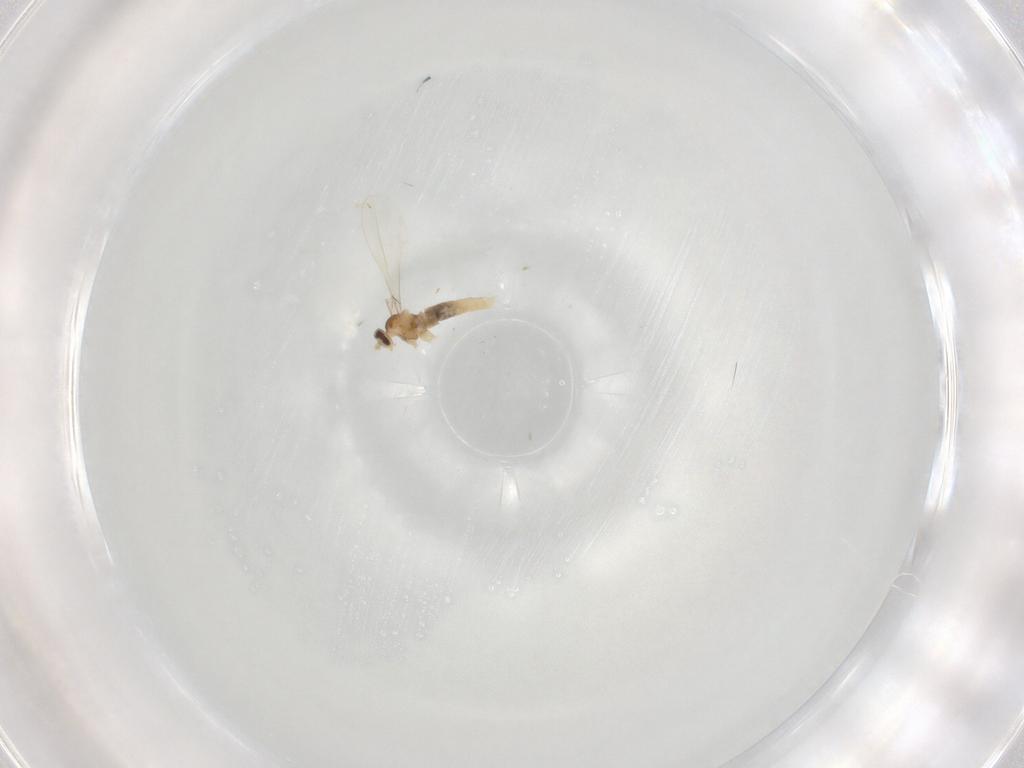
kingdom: Animalia
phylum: Arthropoda
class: Insecta
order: Diptera
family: Cecidomyiidae
